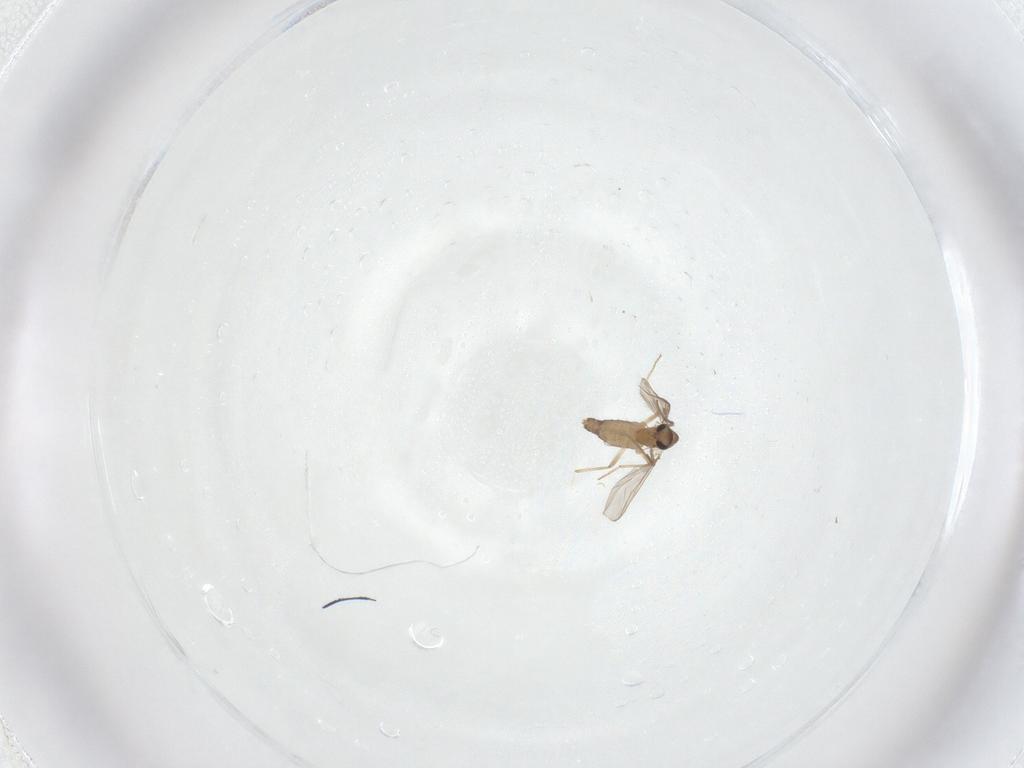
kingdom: Animalia
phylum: Arthropoda
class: Insecta
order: Diptera
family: Chironomidae
